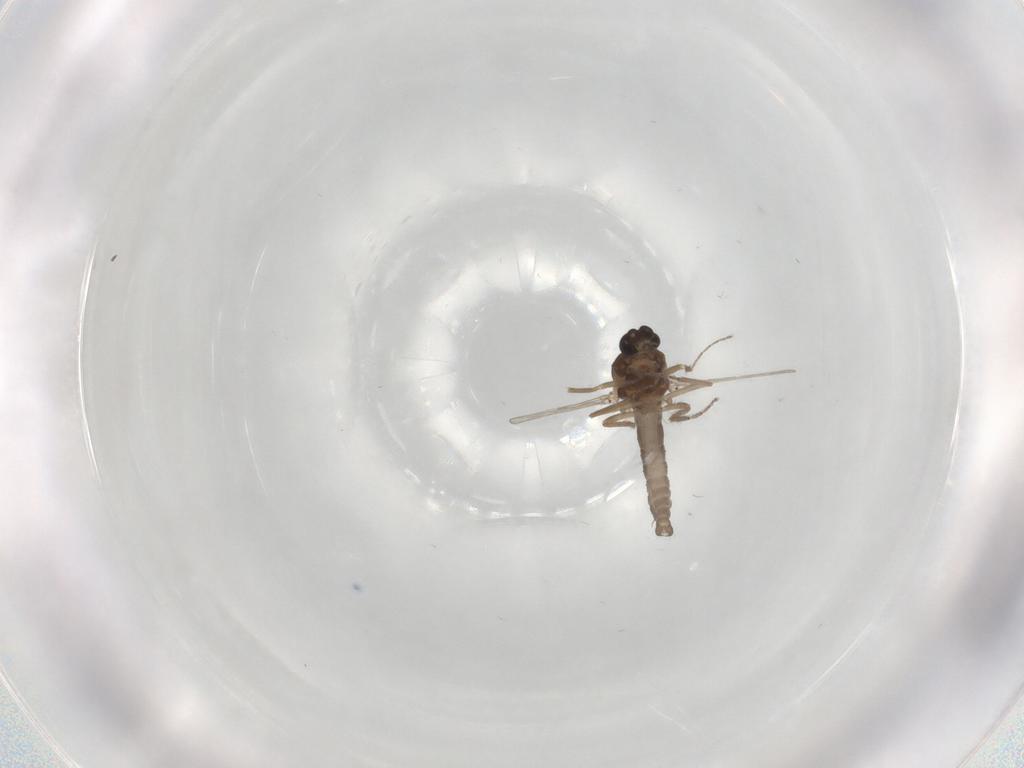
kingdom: Animalia
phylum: Arthropoda
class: Insecta
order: Diptera
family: Ceratopogonidae
